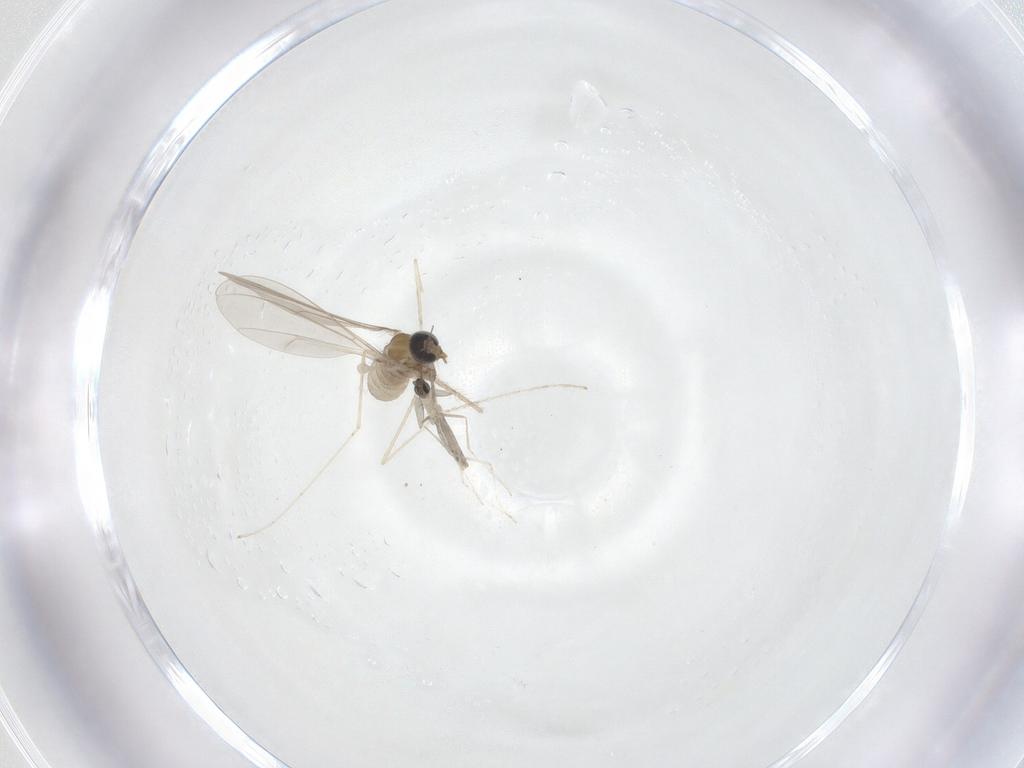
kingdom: Animalia
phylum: Arthropoda
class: Insecta
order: Diptera
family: Cecidomyiidae
